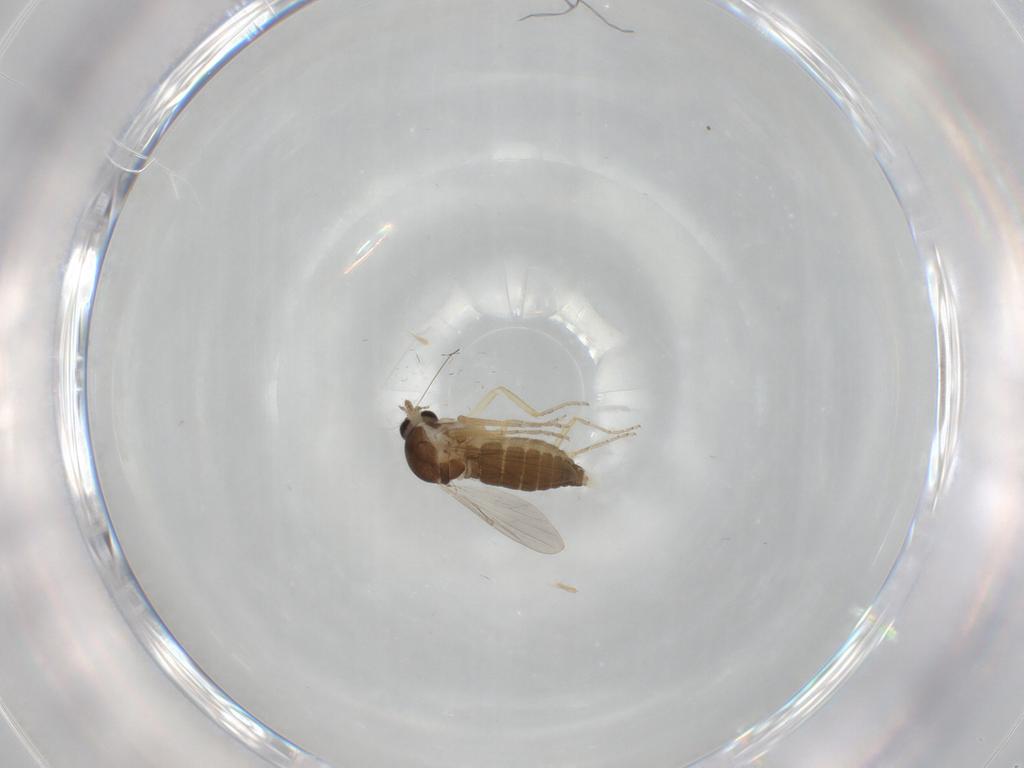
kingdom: Animalia
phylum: Arthropoda
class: Insecta
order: Diptera
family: Ceratopogonidae
